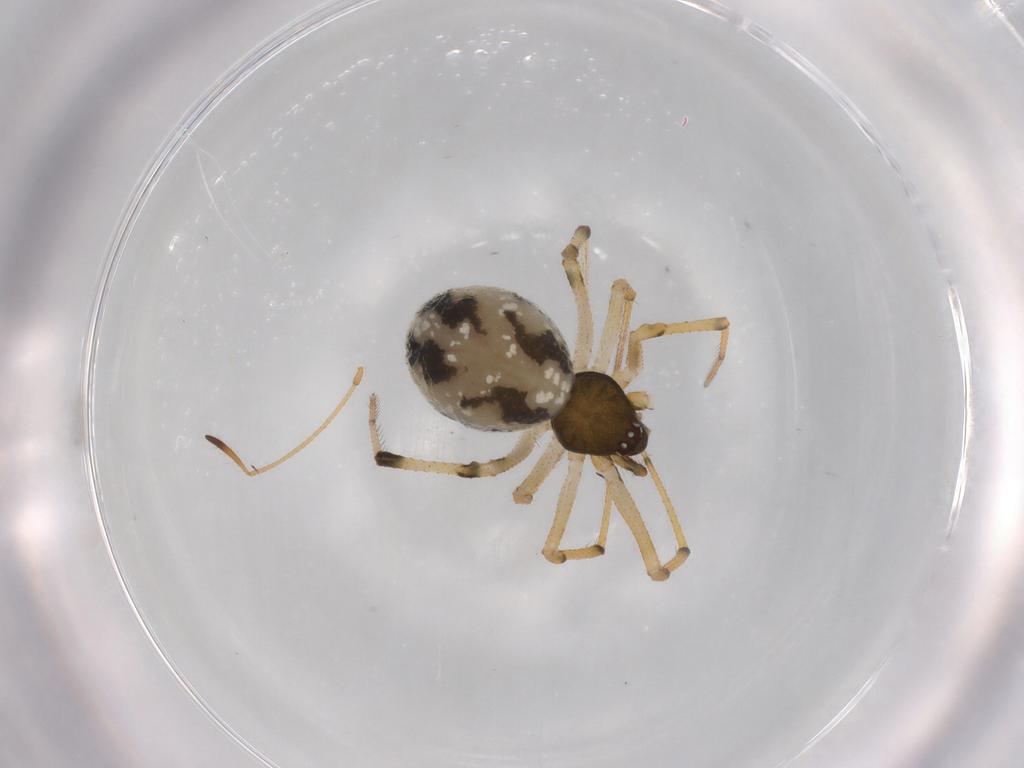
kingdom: Animalia
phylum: Arthropoda
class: Arachnida
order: Araneae
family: Theridiidae
